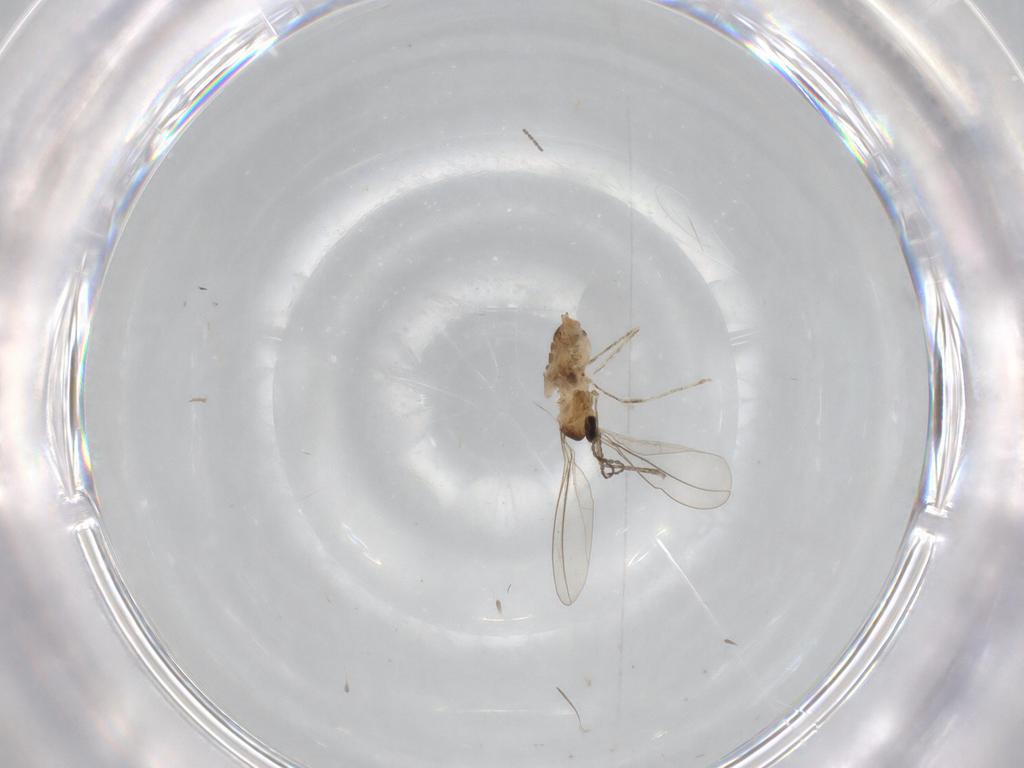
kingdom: Animalia
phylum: Arthropoda
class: Insecta
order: Diptera
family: Cecidomyiidae
